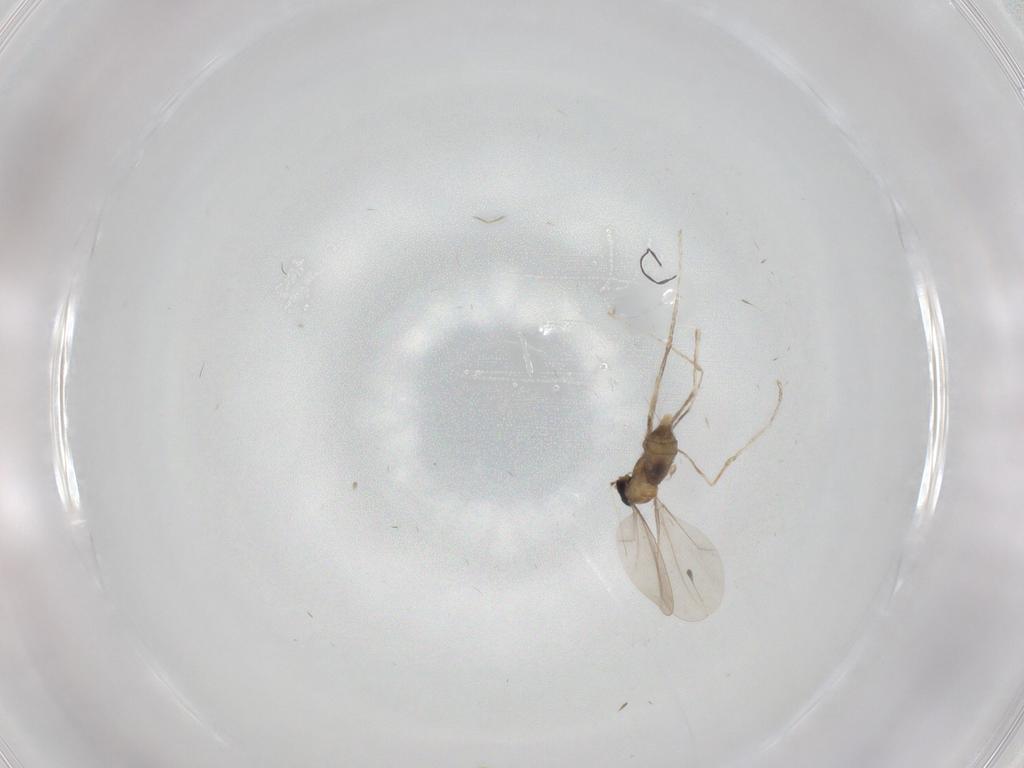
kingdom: Animalia
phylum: Arthropoda
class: Insecta
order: Diptera
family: Cecidomyiidae
